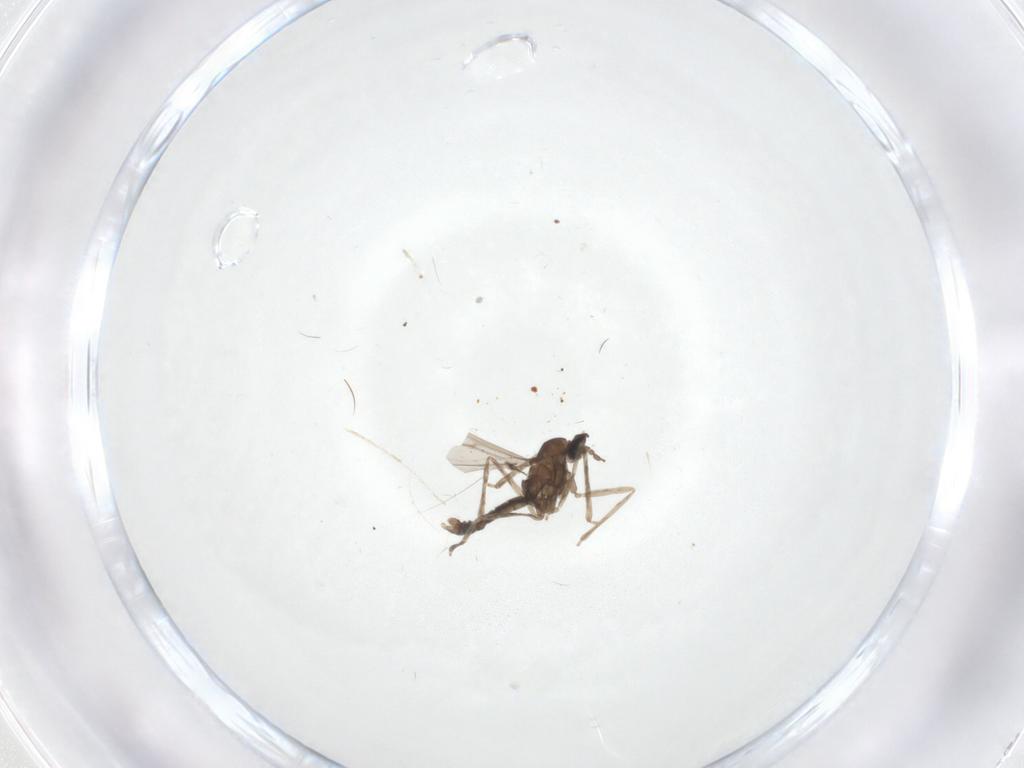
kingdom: Animalia
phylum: Arthropoda
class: Insecta
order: Diptera
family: Cecidomyiidae
